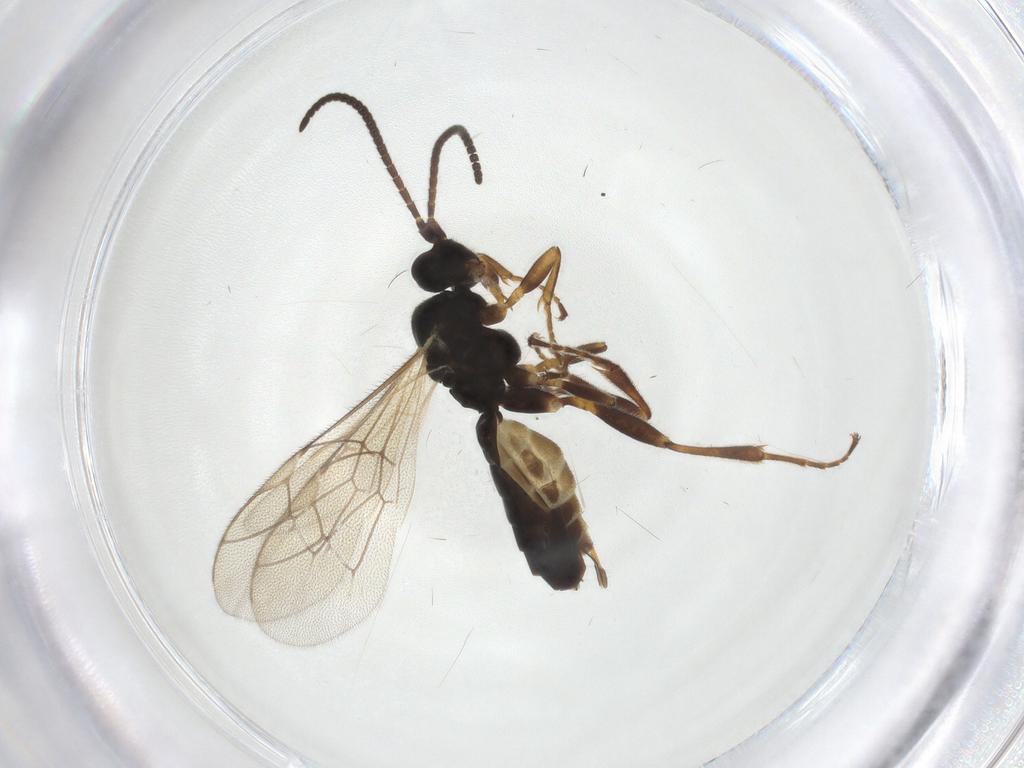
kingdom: Animalia
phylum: Arthropoda
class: Insecta
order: Hymenoptera
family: Ichneumonidae
